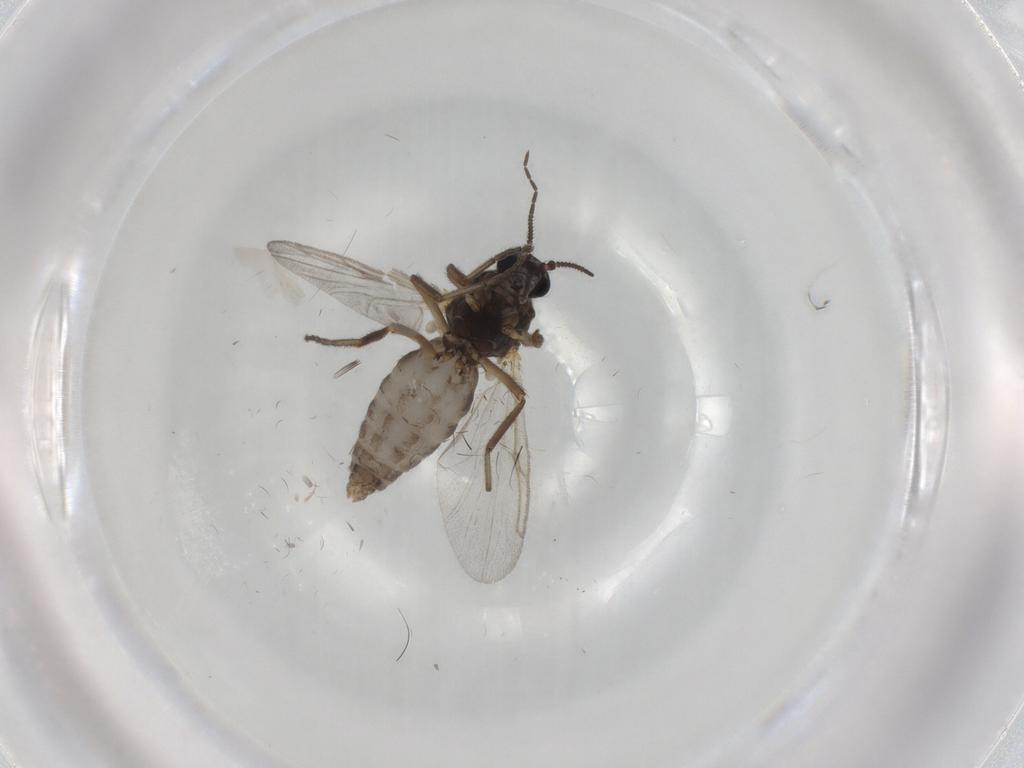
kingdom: Animalia
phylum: Arthropoda
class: Insecta
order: Diptera
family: Ceratopogonidae
